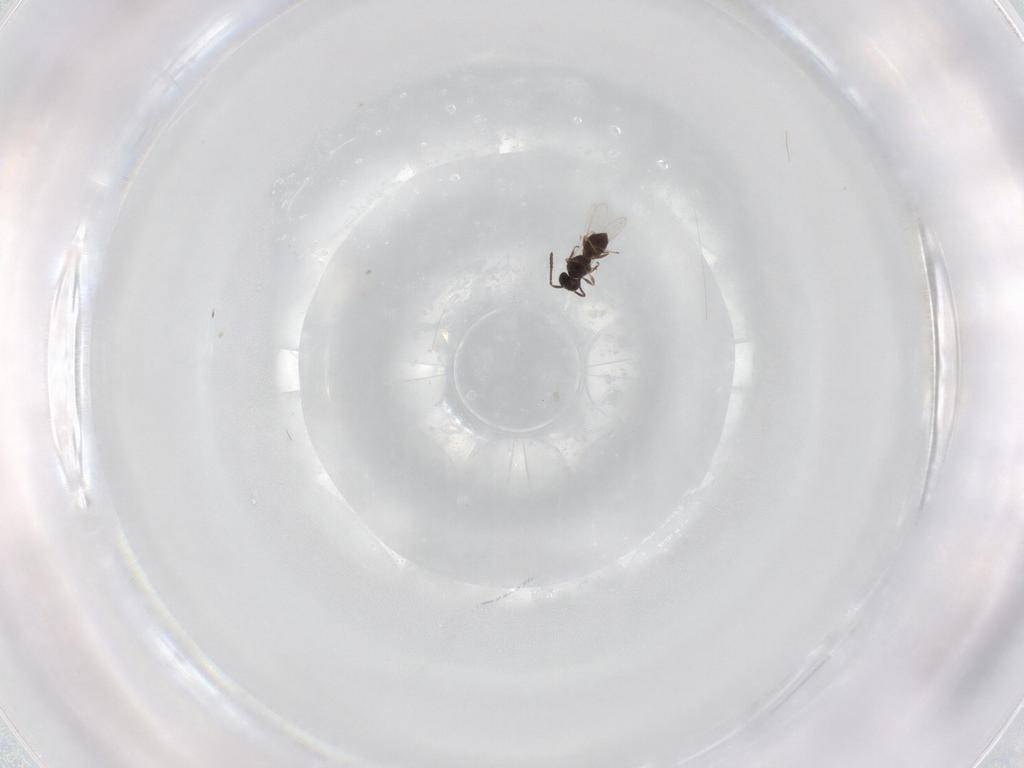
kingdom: Animalia
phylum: Arthropoda
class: Insecta
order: Hymenoptera
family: Scelionidae
